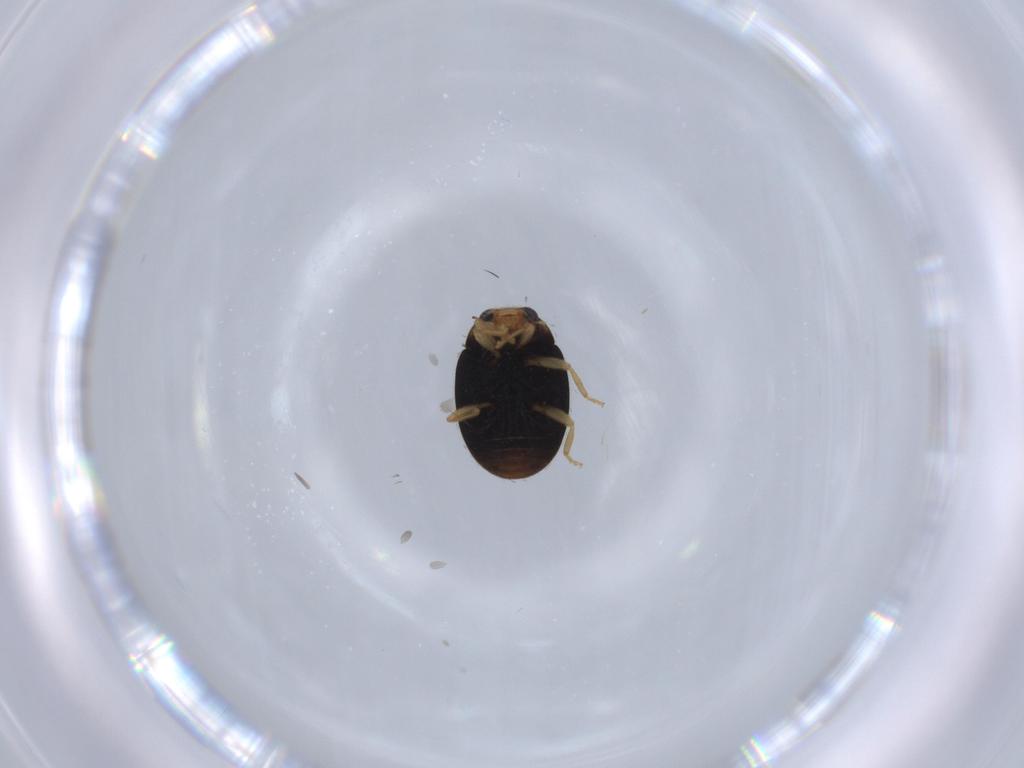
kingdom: Animalia
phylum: Arthropoda
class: Insecta
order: Coleoptera
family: Coccinellidae
